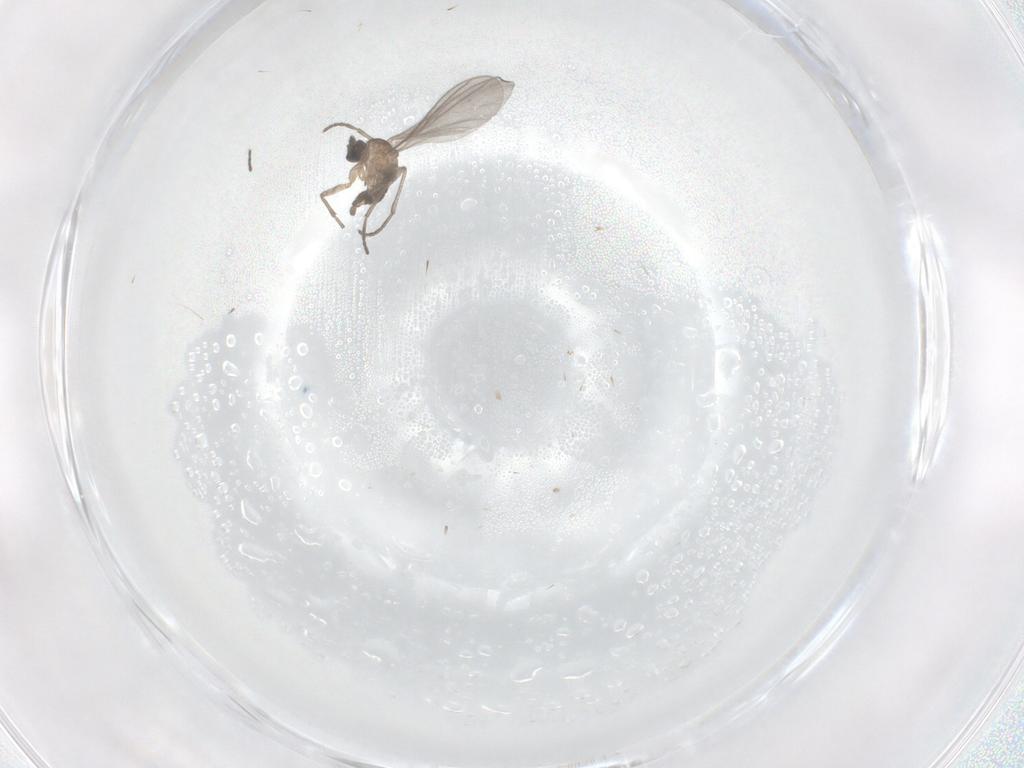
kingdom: Animalia
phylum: Arthropoda
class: Insecta
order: Diptera
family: Sciaridae
